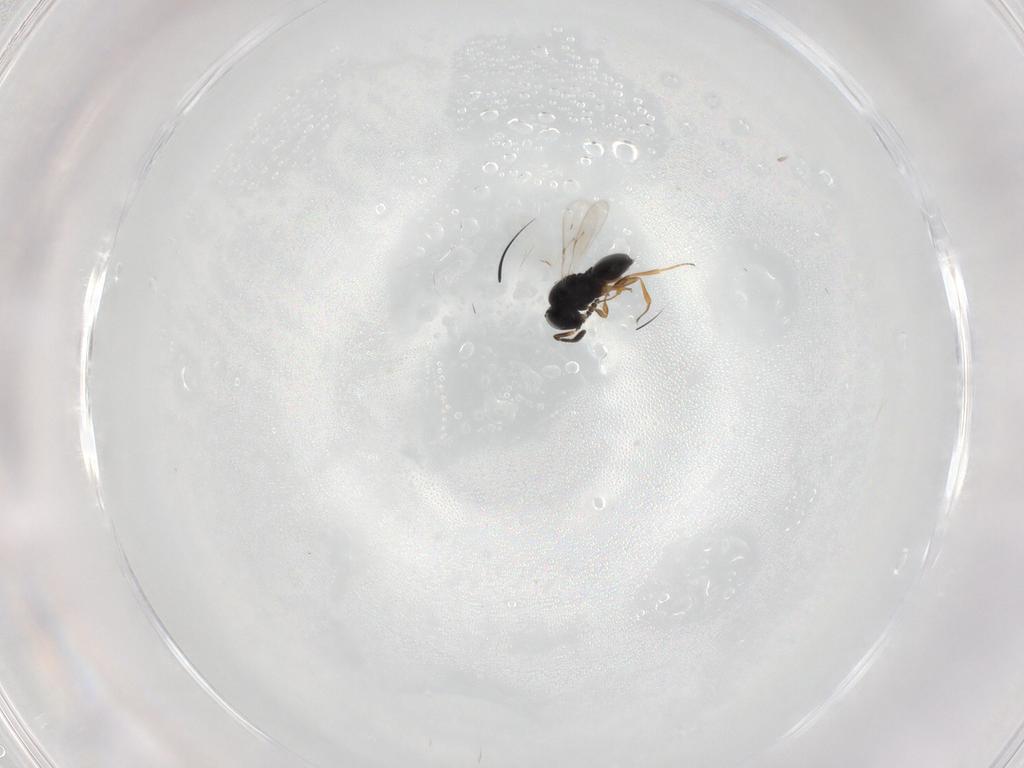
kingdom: Animalia
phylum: Arthropoda
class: Insecta
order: Hymenoptera
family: Scelionidae
